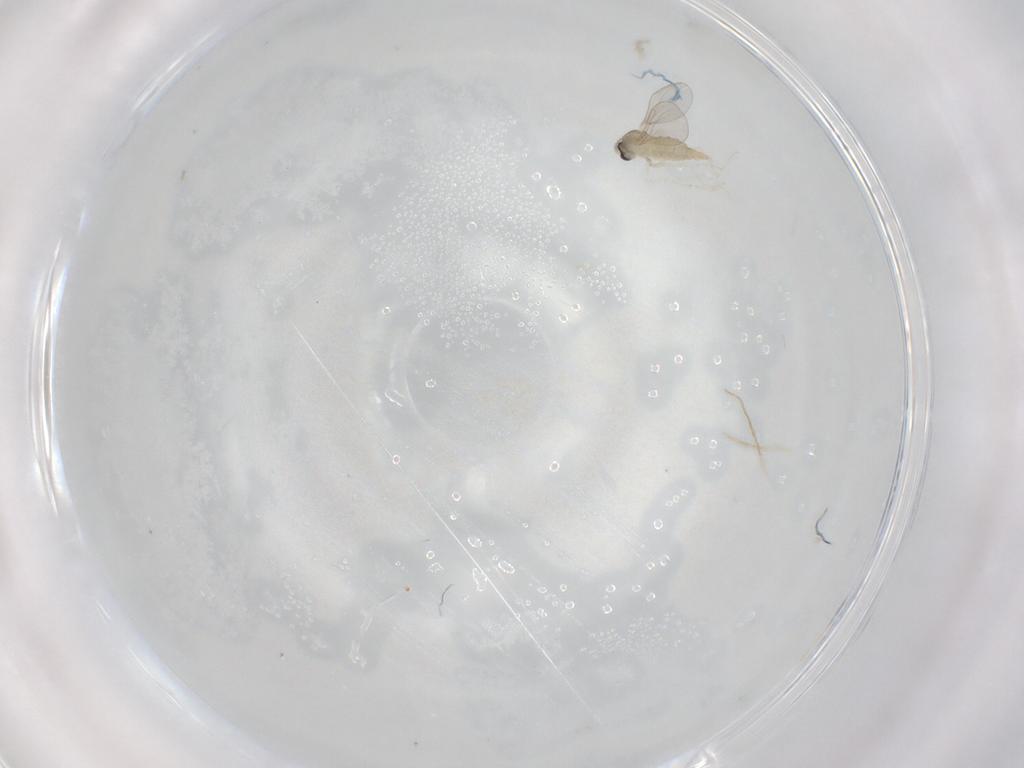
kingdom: Animalia
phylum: Arthropoda
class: Insecta
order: Diptera
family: Cecidomyiidae
